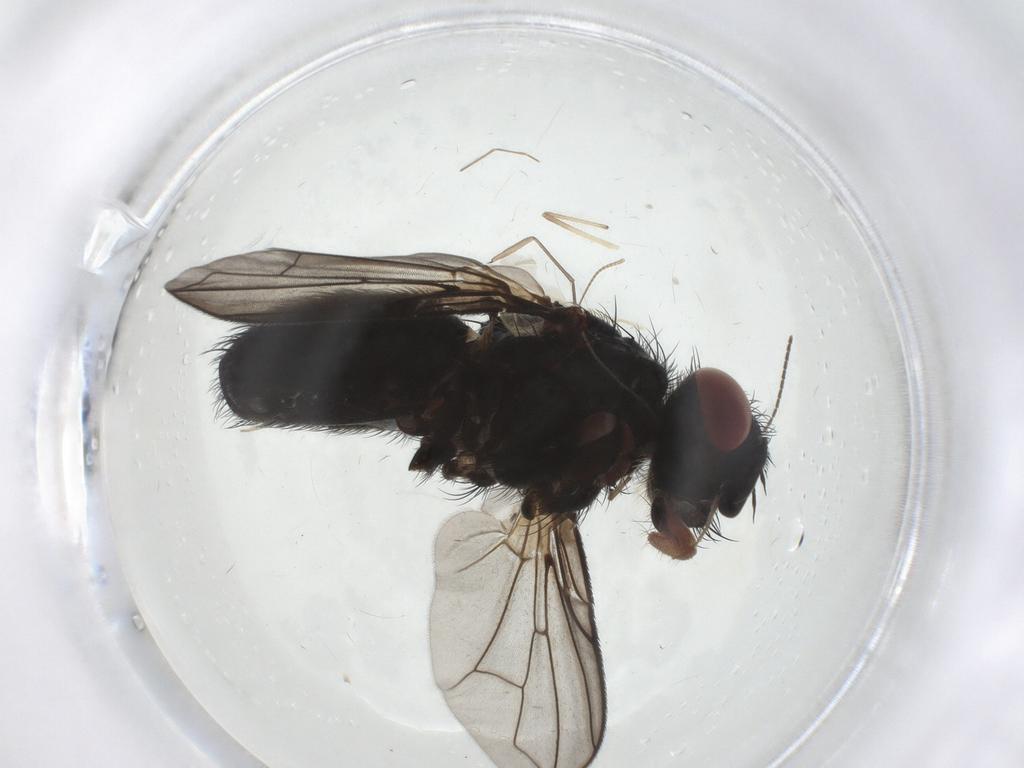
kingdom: Animalia
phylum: Arthropoda
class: Insecta
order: Diptera
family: Sciaridae
